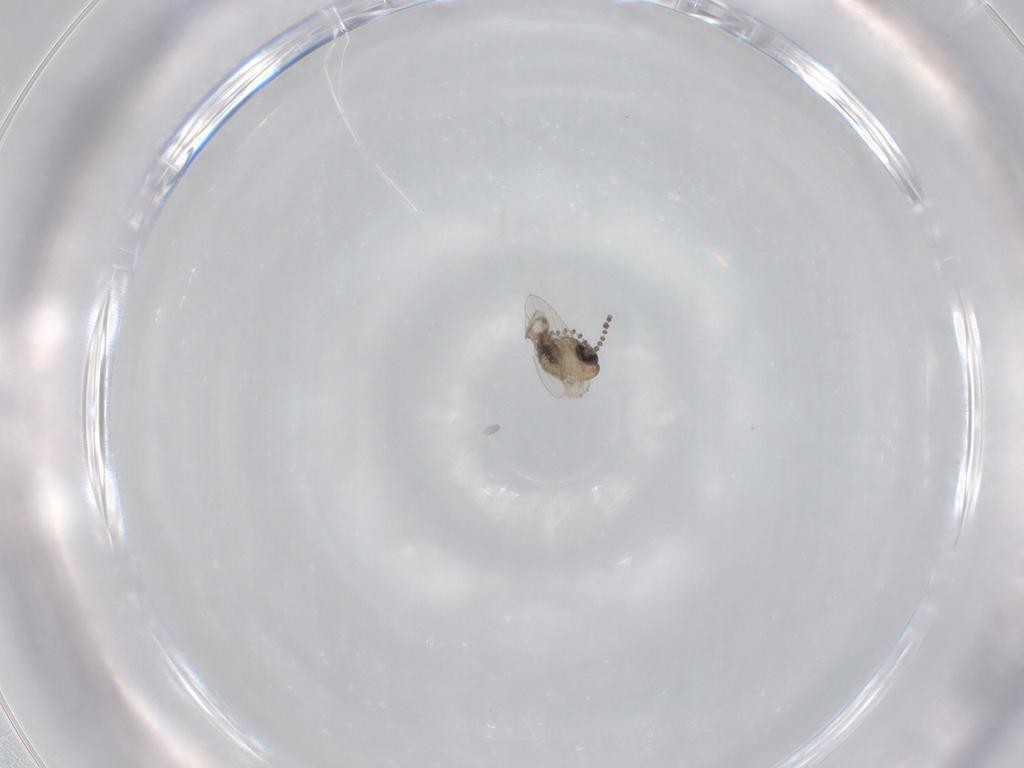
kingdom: Animalia
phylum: Arthropoda
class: Insecta
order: Diptera
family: Psychodidae
